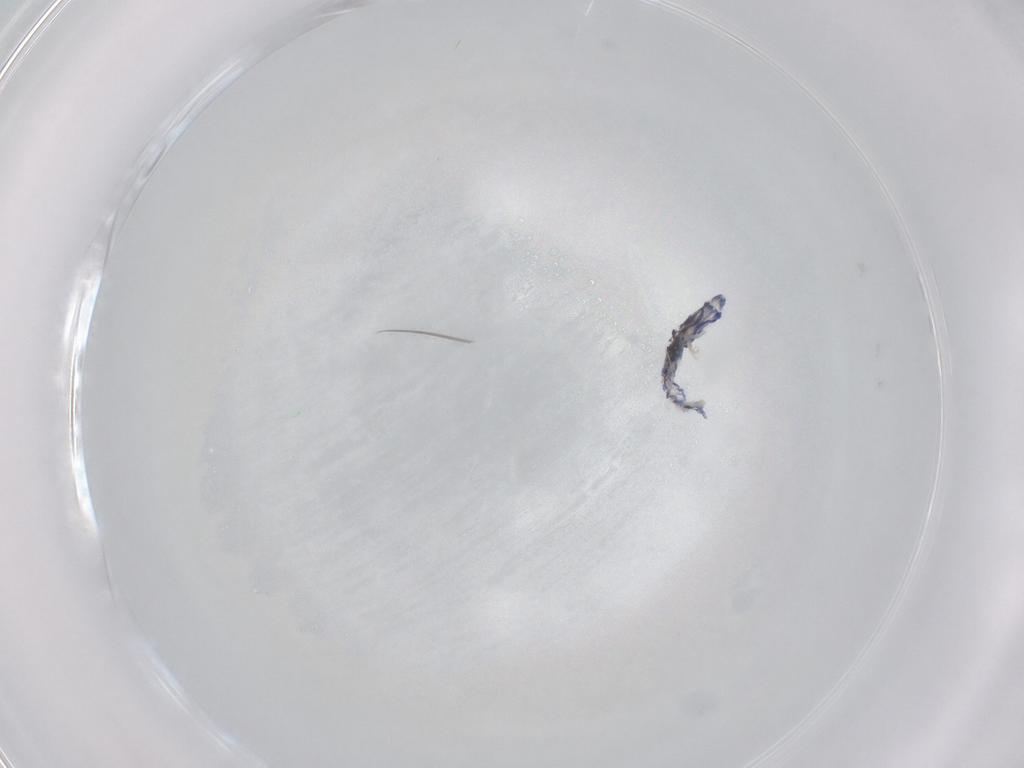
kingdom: Animalia
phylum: Arthropoda
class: Collembola
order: Entomobryomorpha
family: Entomobryidae
